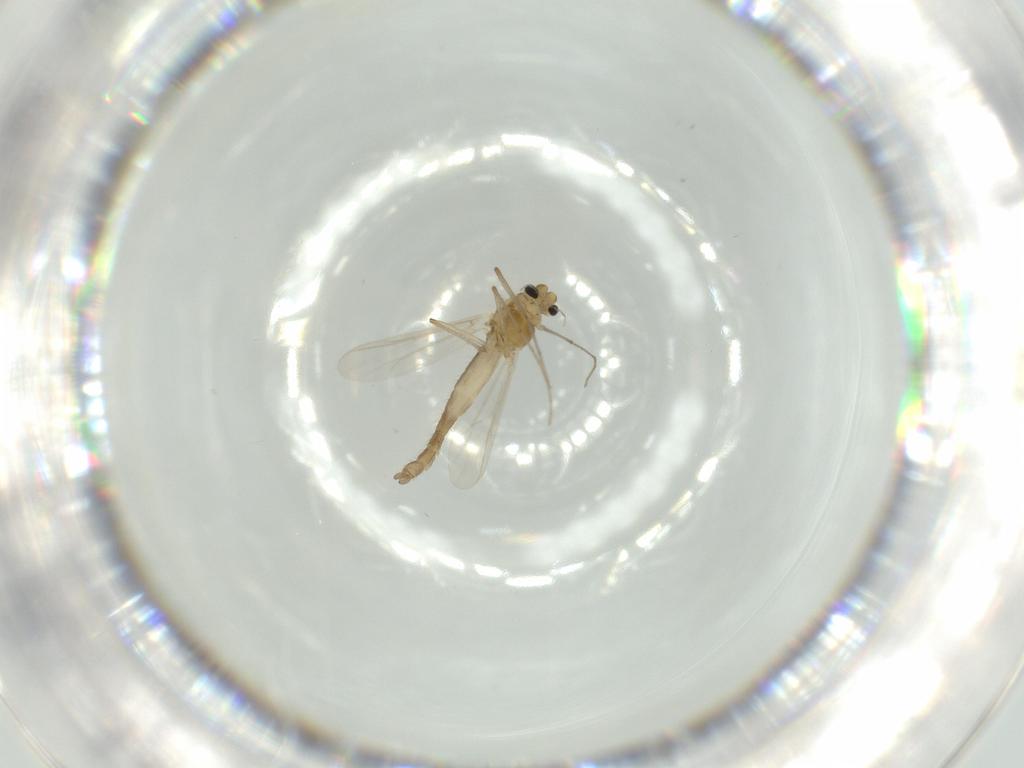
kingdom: Animalia
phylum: Arthropoda
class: Insecta
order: Diptera
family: Chironomidae
